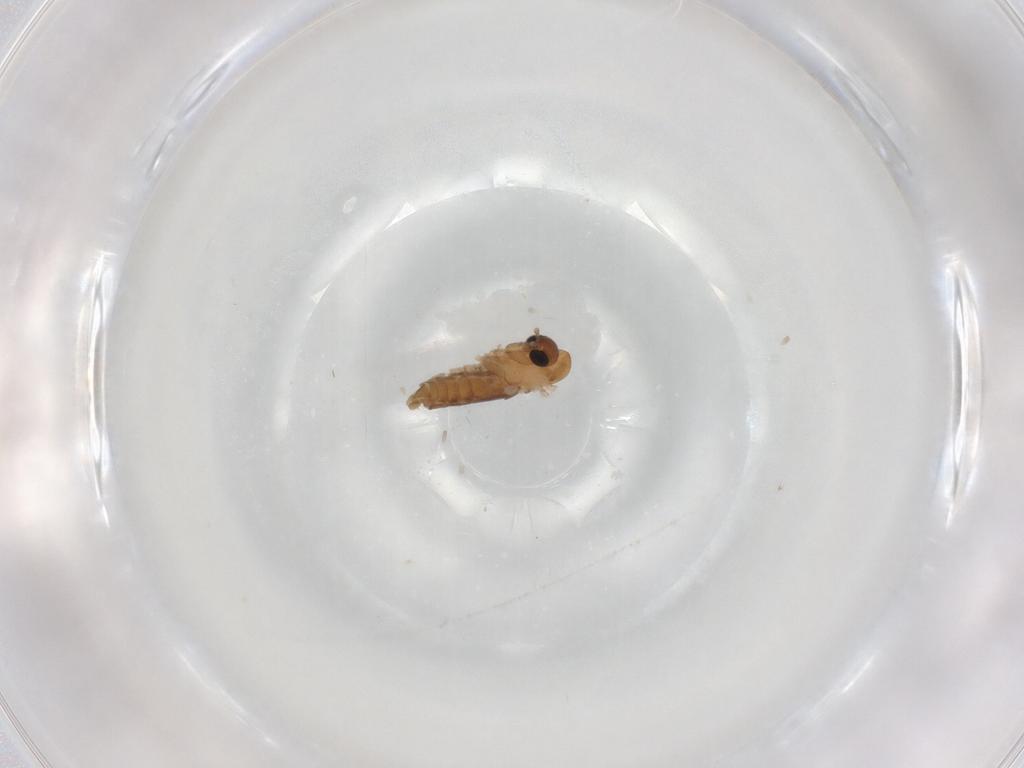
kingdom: Animalia
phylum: Arthropoda
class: Insecta
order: Diptera
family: Ceratopogonidae
